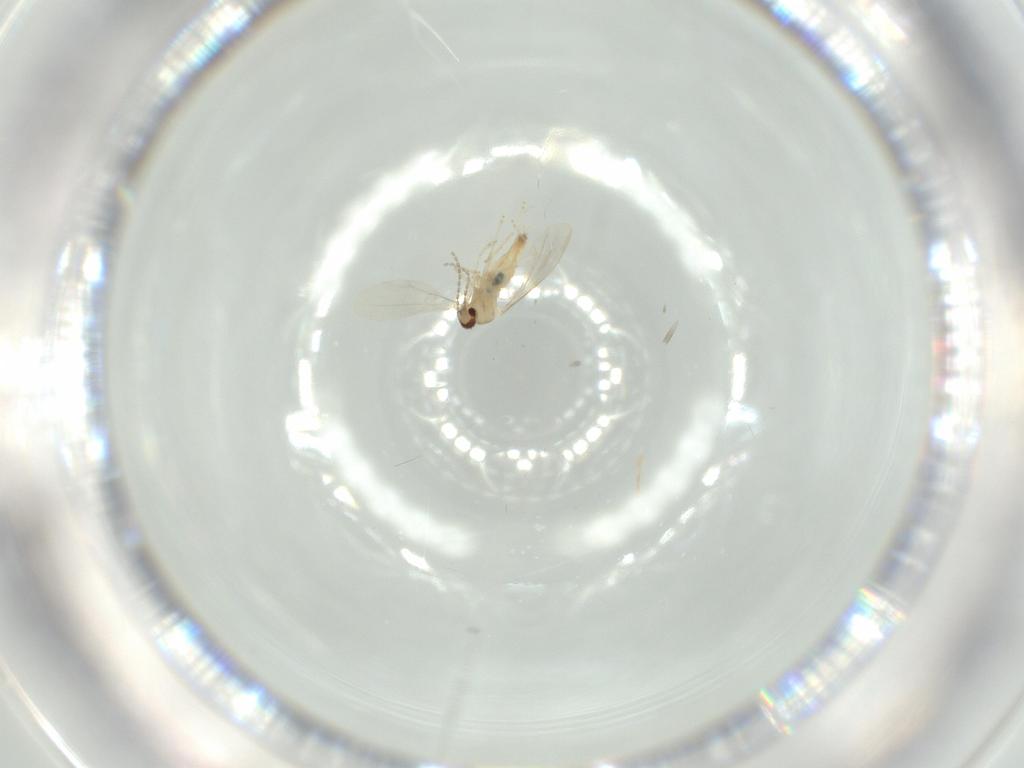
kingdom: Animalia
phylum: Arthropoda
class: Insecta
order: Diptera
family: Cecidomyiidae
